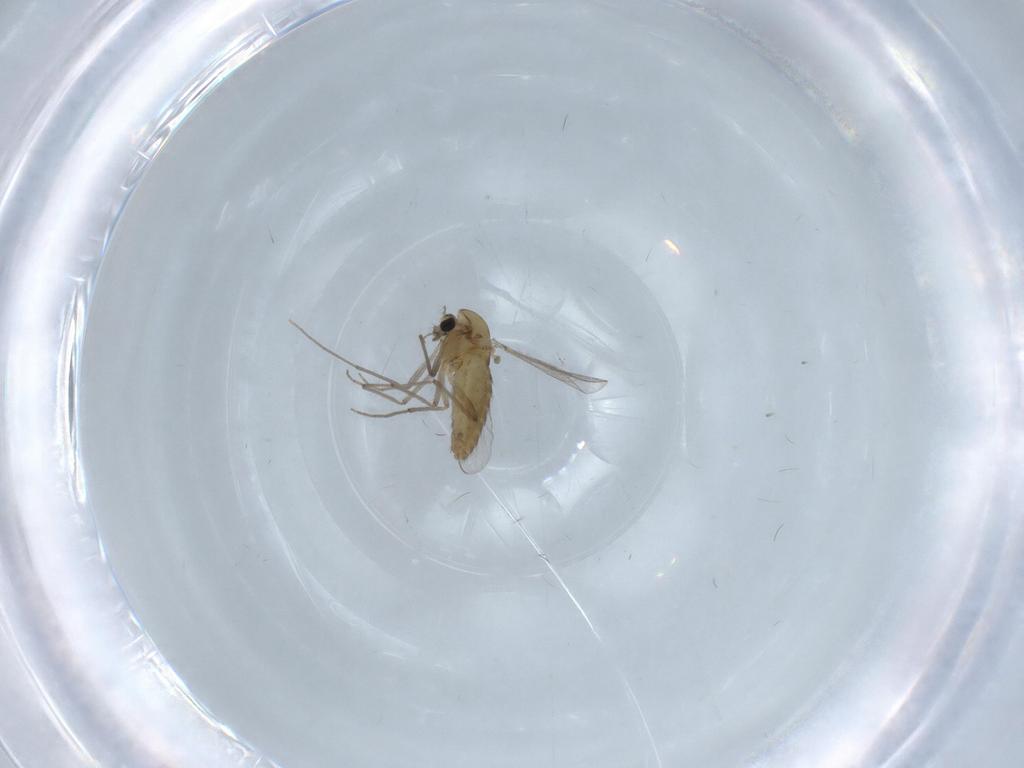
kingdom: Animalia
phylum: Arthropoda
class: Insecta
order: Diptera
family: Chironomidae
